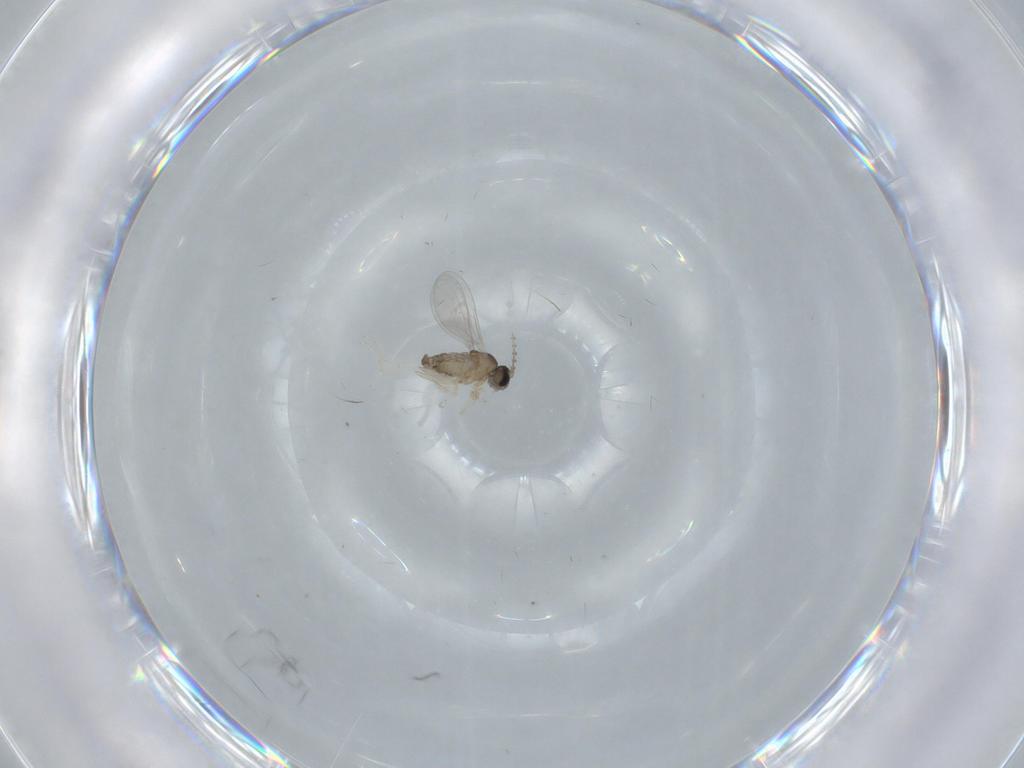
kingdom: Animalia
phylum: Arthropoda
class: Insecta
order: Diptera
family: Cecidomyiidae
